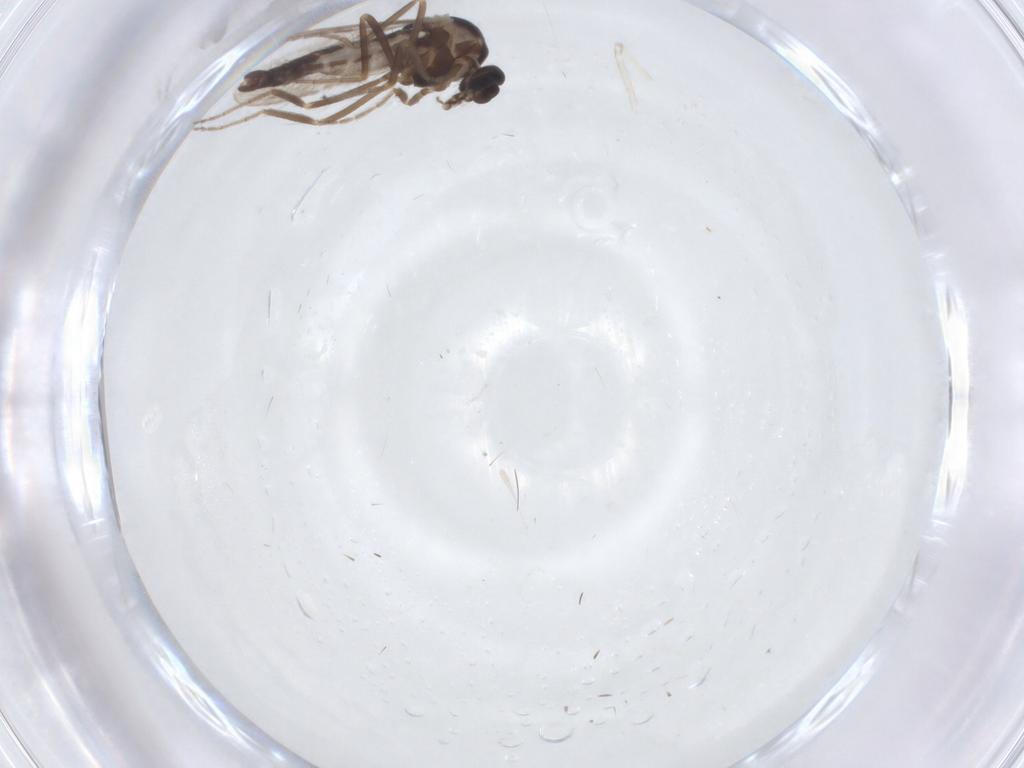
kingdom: Animalia
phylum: Arthropoda
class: Insecta
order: Diptera
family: Ceratopogonidae
